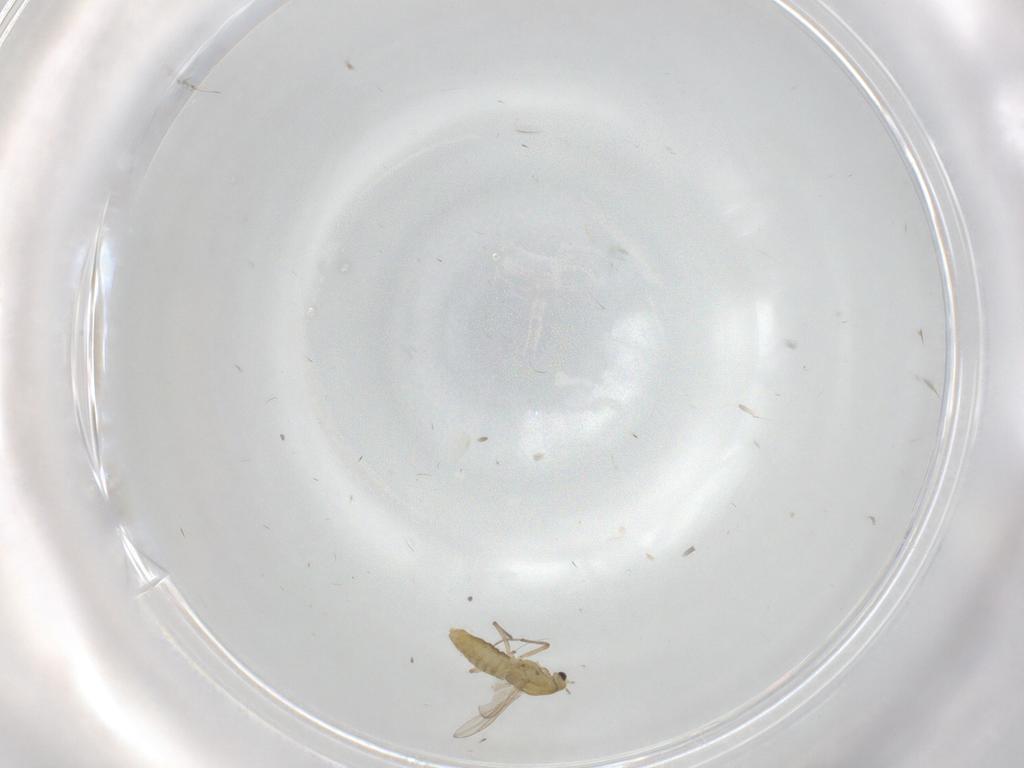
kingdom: Animalia
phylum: Arthropoda
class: Insecta
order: Diptera
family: Chironomidae
